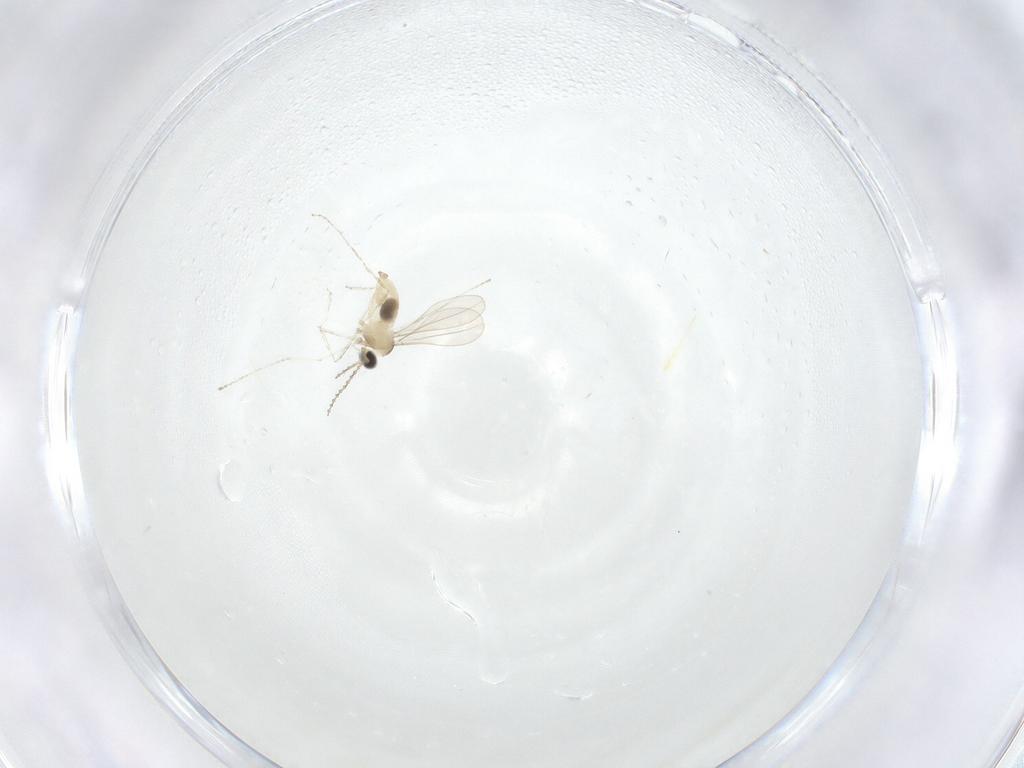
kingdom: Animalia
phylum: Arthropoda
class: Insecta
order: Diptera
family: Cecidomyiidae
